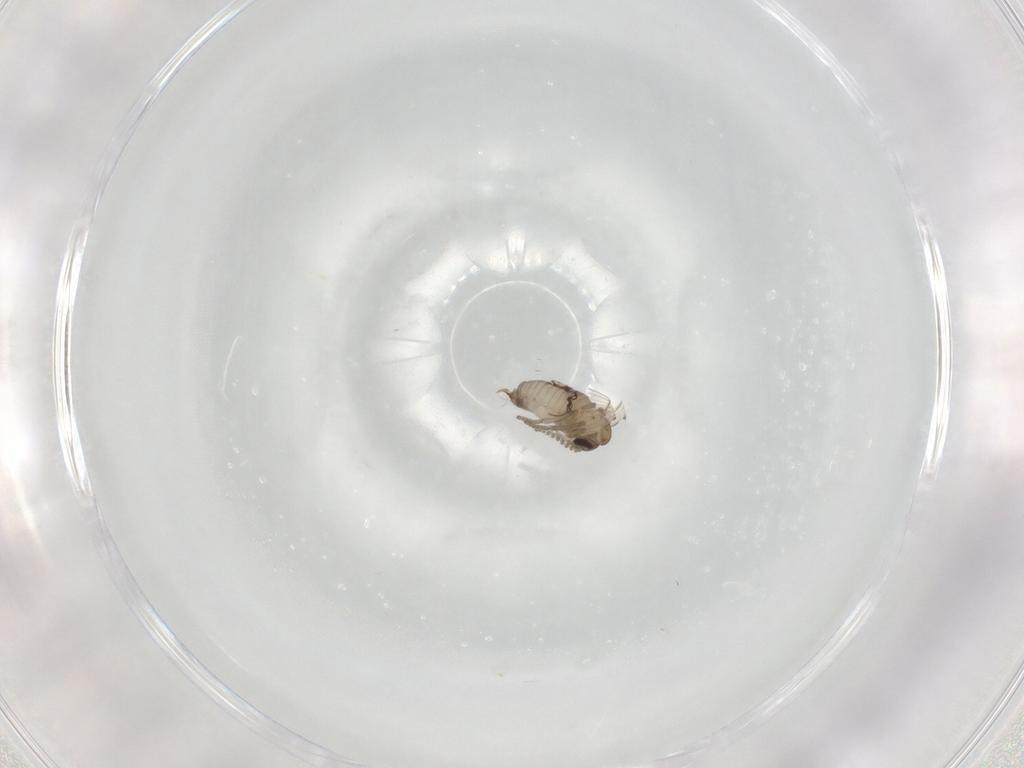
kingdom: Animalia
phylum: Arthropoda
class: Insecta
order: Diptera
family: Psychodidae
